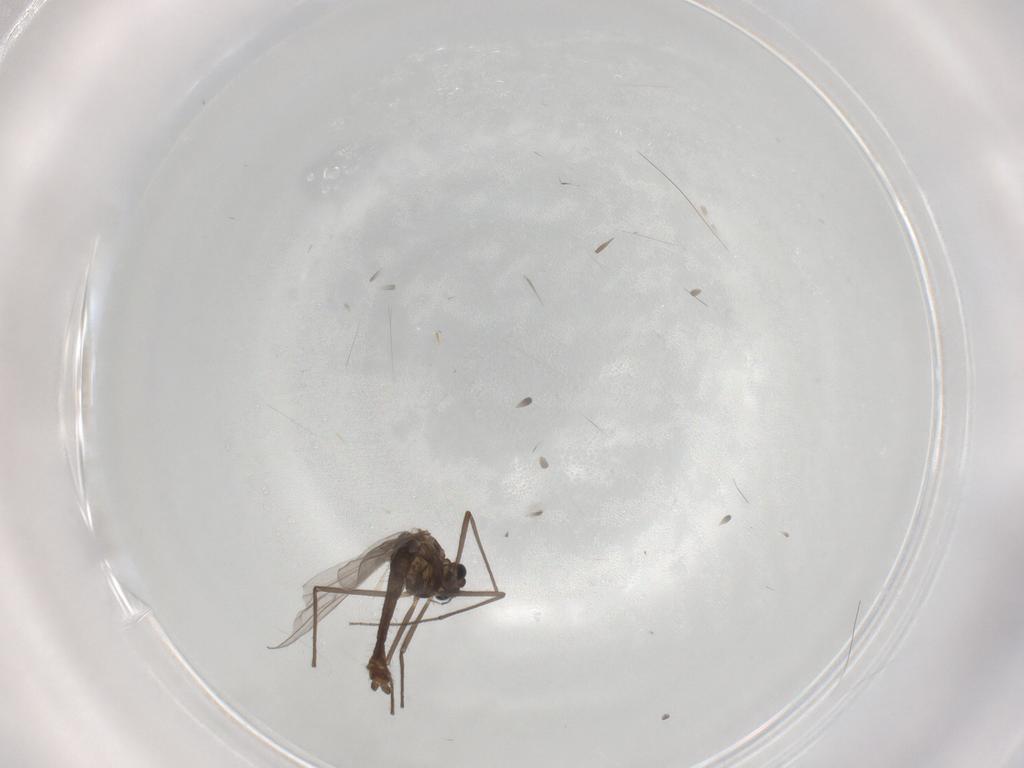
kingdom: Animalia
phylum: Arthropoda
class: Insecta
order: Diptera
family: Chironomidae
